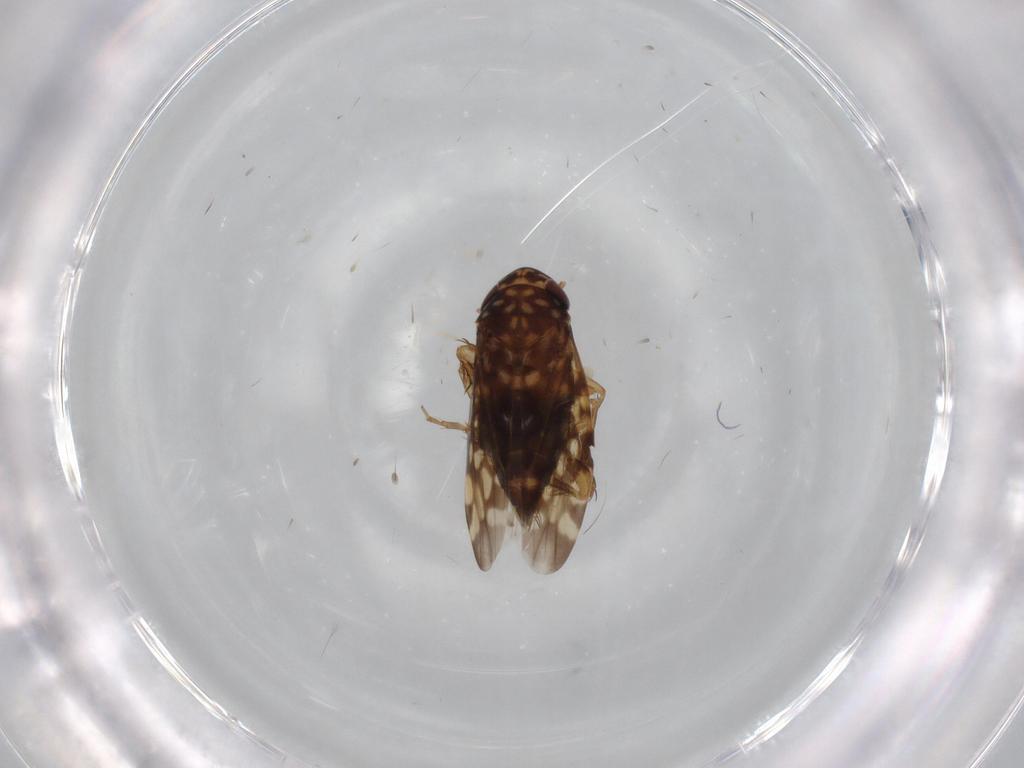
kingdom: Animalia
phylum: Arthropoda
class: Insecta
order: Hemiptera
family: Cicadellidae
